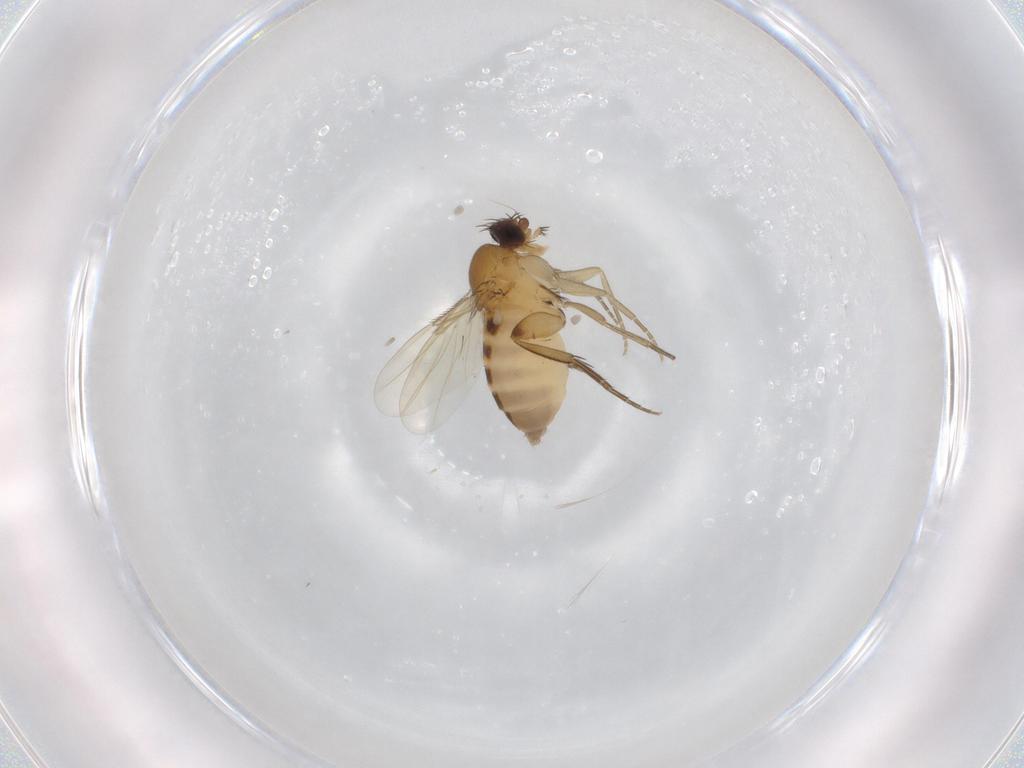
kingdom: Animalia
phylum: Arthropoda
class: Insecta
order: Diptera
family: Phoridae
